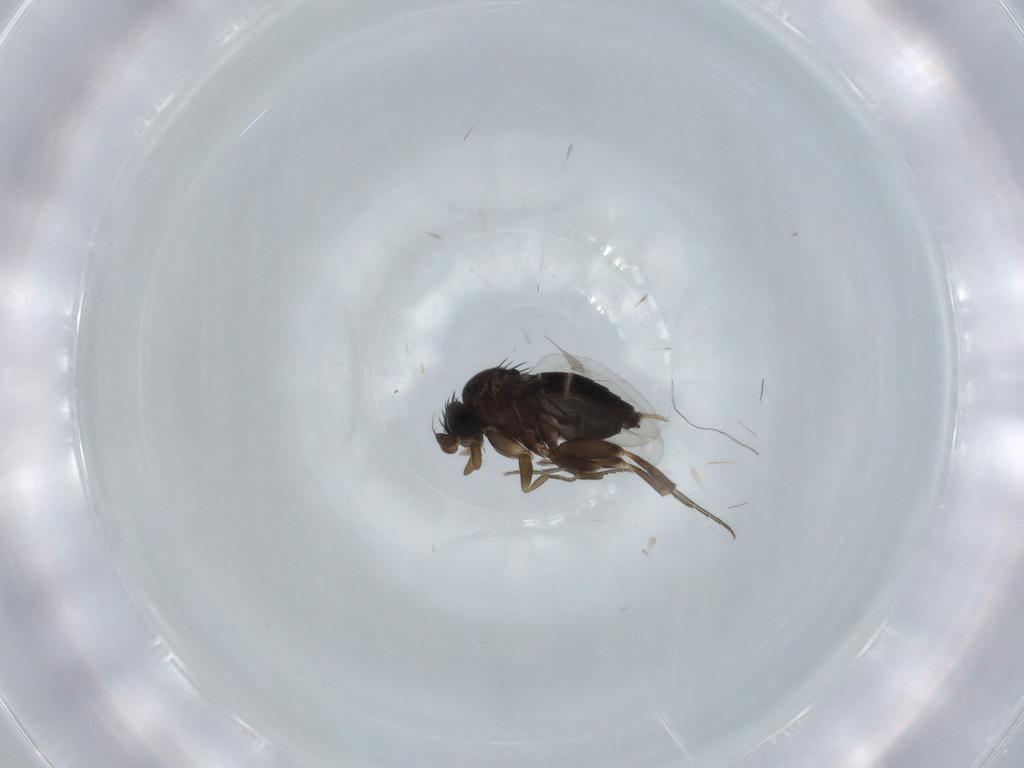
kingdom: Animalia
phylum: Arthropoda
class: Insecta
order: Diptera
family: Phoridae
